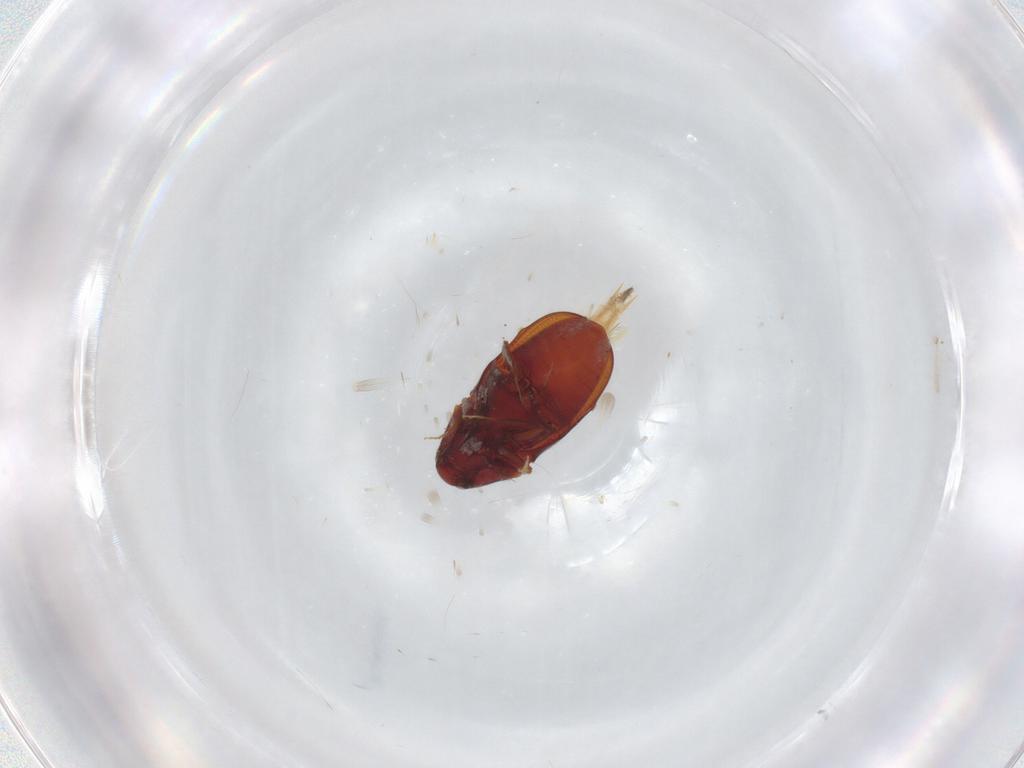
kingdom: Animalia
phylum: Arthropoda
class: Insecta
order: Coleoptera
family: Throscidae
